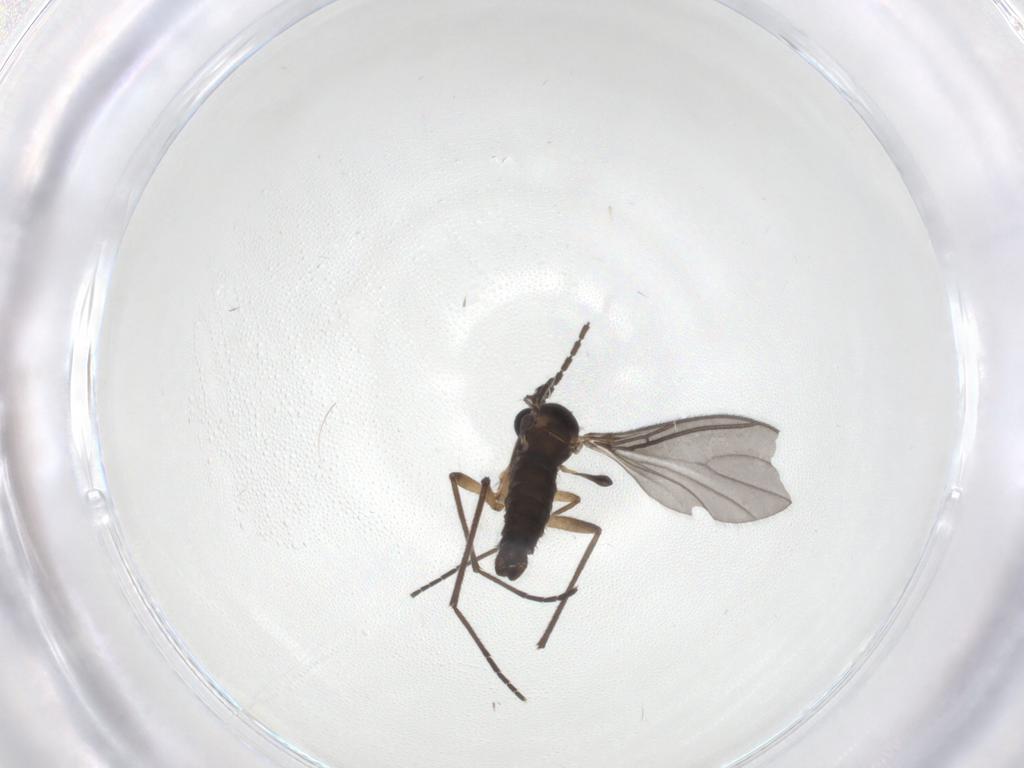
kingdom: Animalia
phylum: Arthropoda
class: Insecta
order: Diptera
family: Sciaridae
